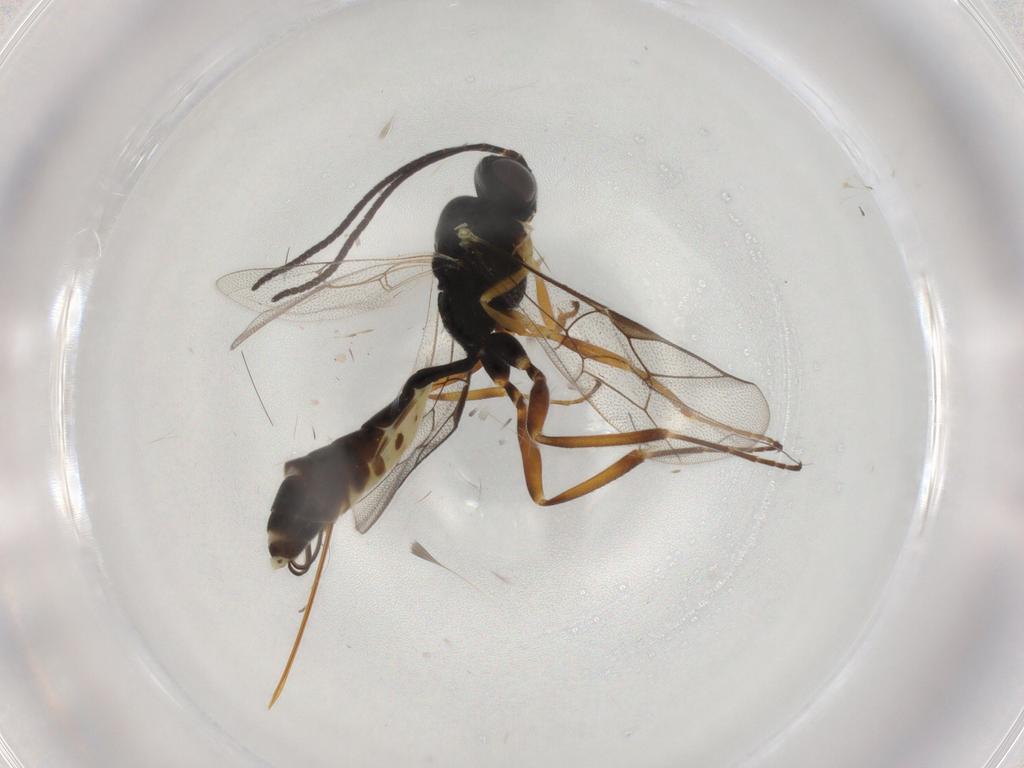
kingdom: Animalia
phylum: Arthropoda
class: Insecta
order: Hymenoptera
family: Ichneumonidae
